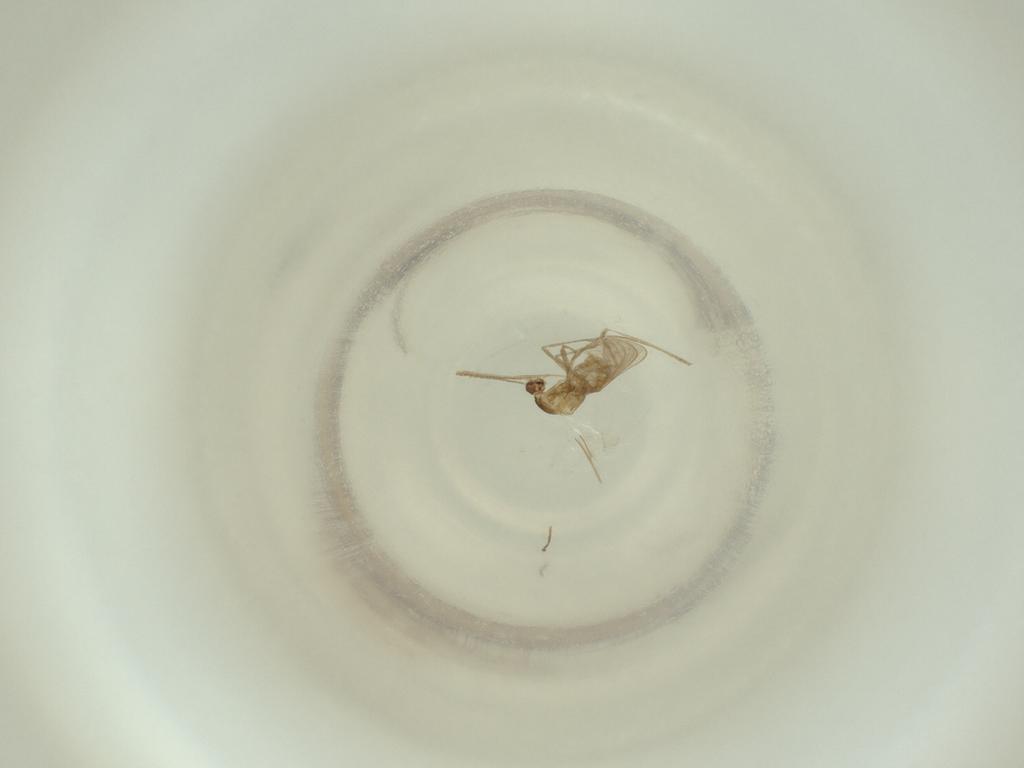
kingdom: Animalia
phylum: Arthropoda
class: Insecta
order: Diptera
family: Cecidomyiidae
